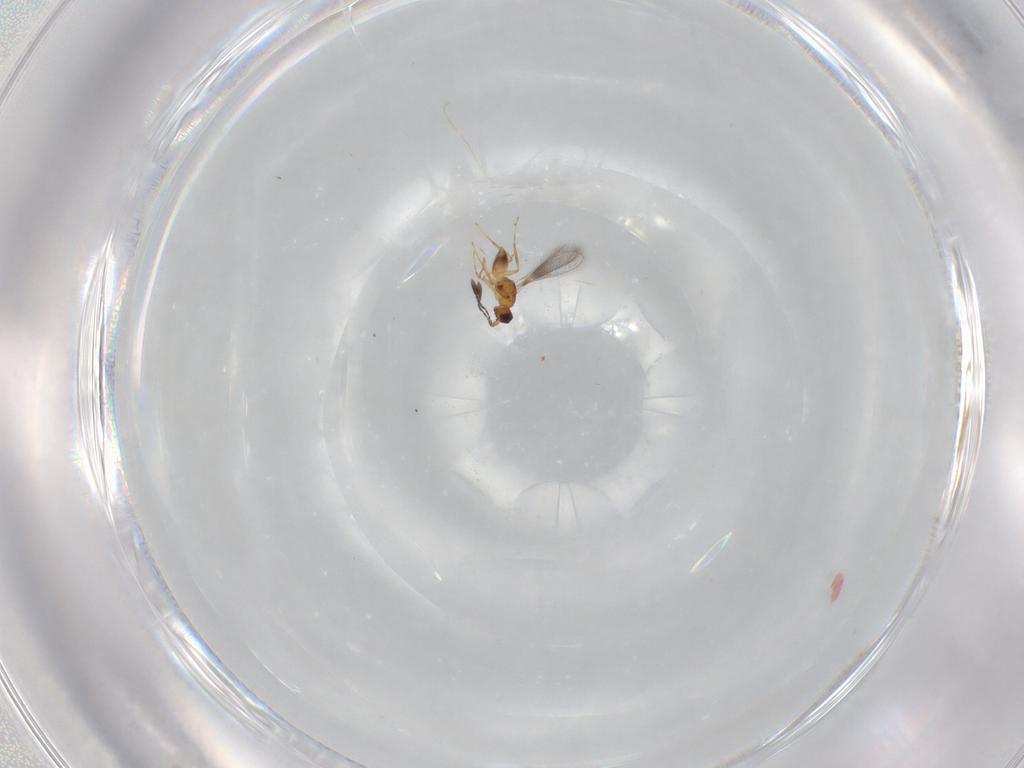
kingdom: Animalia
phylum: Arthropoda
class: Insecta
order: Hymenoptera
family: Mymaridae
